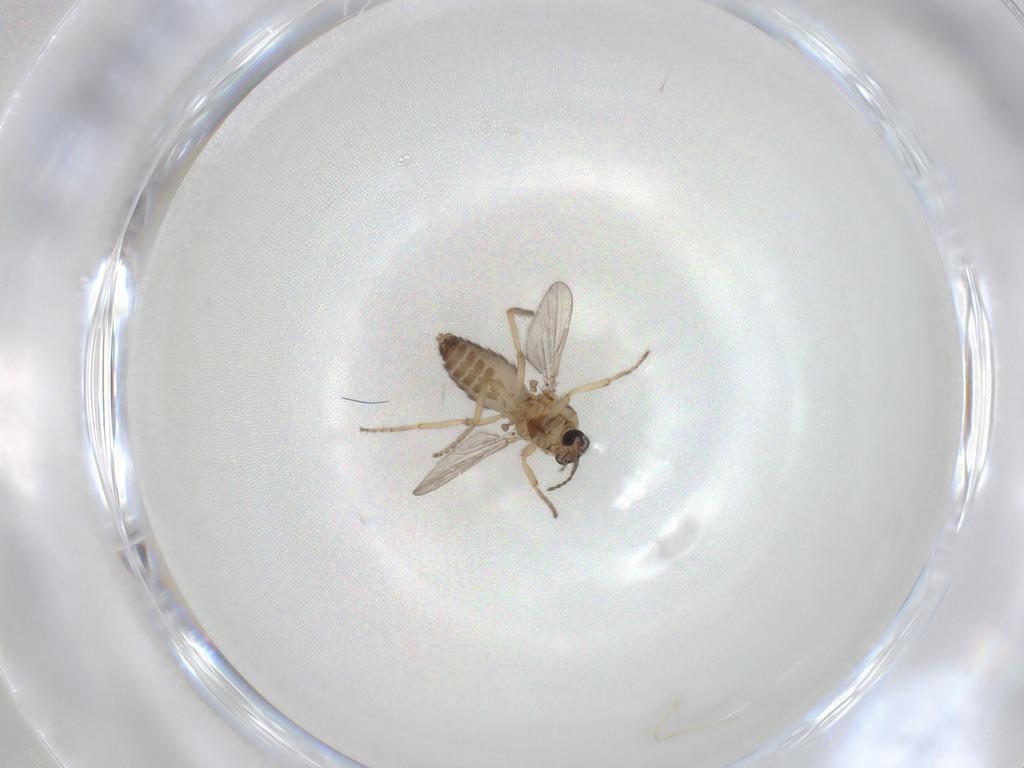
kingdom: Animalia
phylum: Arthropoda
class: Insecta
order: Diptera
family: Ceratopogonidae
